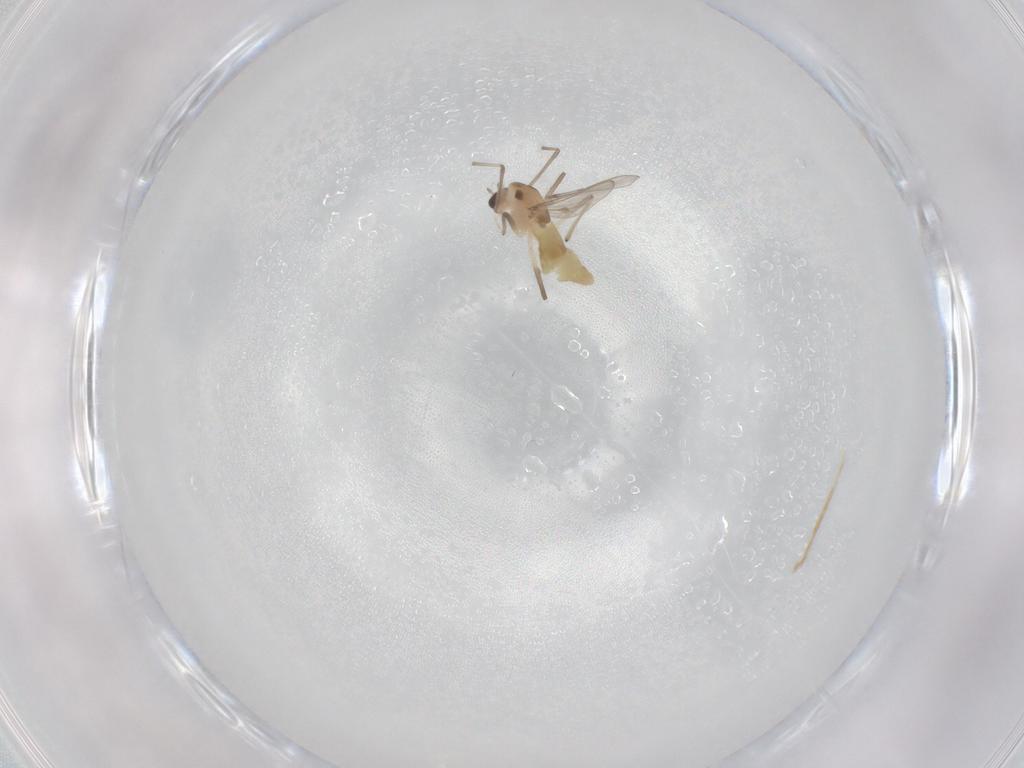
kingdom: Animalia
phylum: Arthropoda
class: Insecta
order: Diptera
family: Chironomidae
